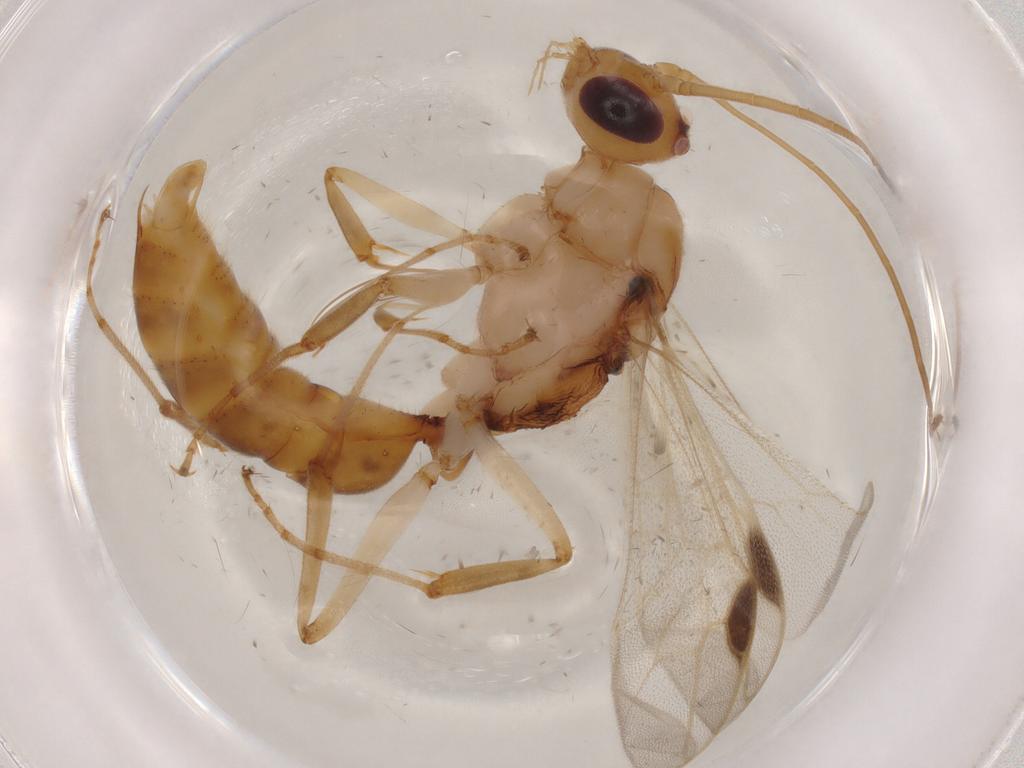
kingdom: Animalia
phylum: Arthropoda
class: Insecta
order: Hymenoptera
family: Formicidae
